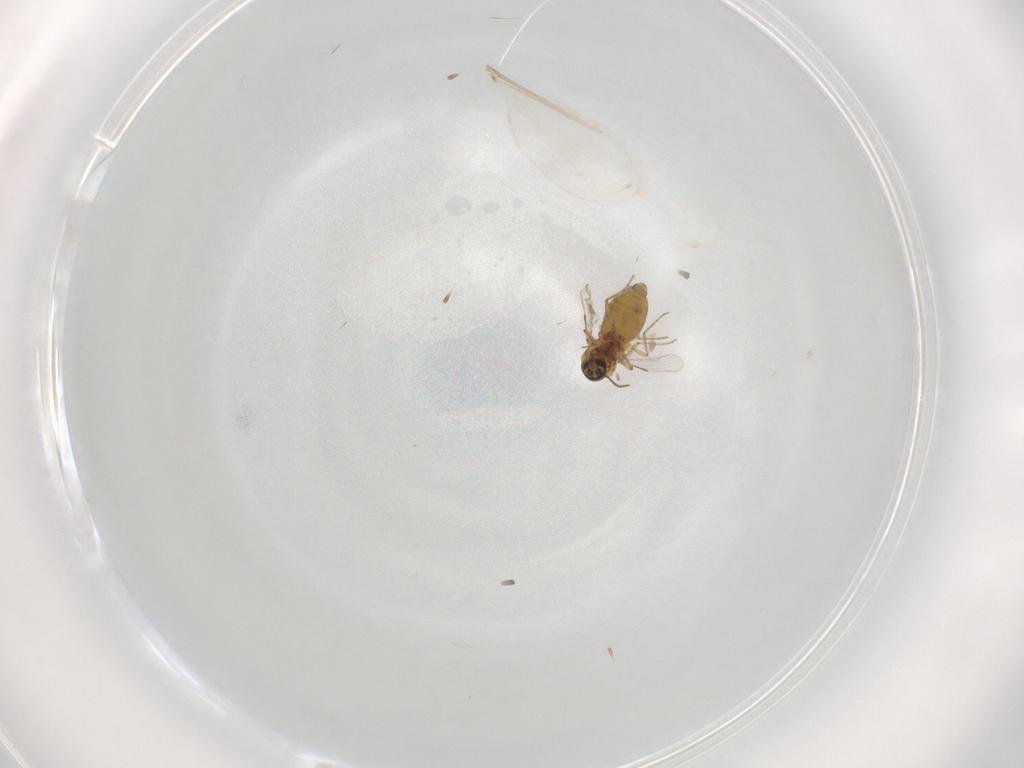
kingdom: Animalia
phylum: Arthropoda
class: Insecta
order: Diptera
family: Ceratopogonidae
